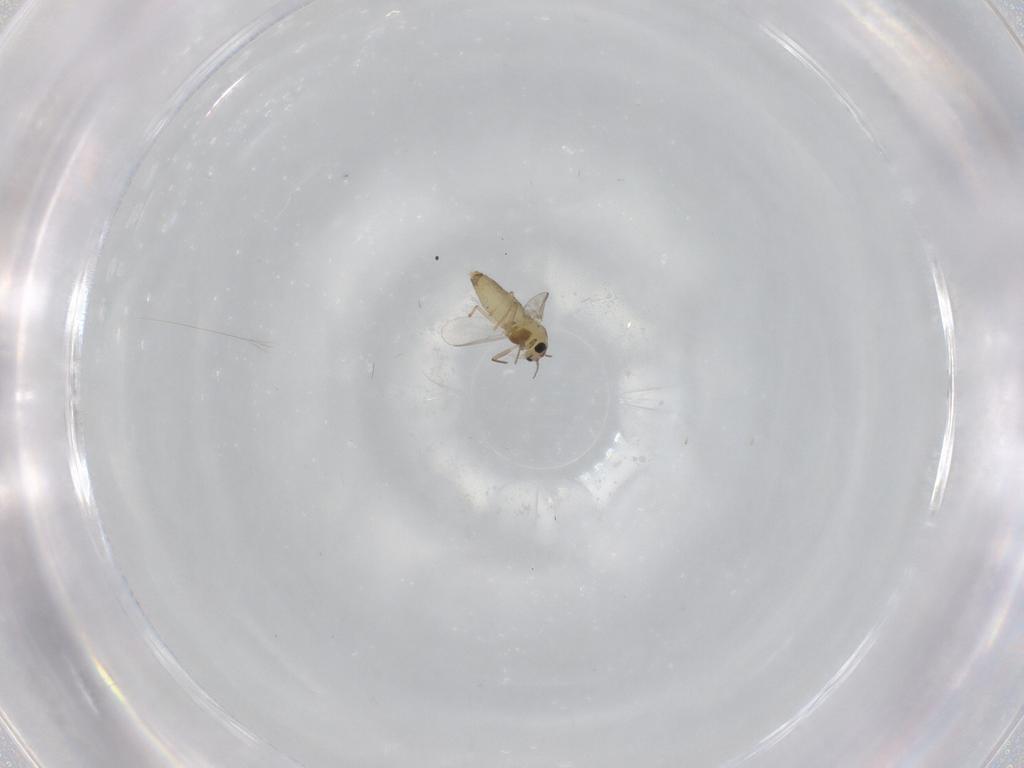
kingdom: Animalia
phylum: Arthropoda
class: Insecta
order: Diptera
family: Chironomidae
